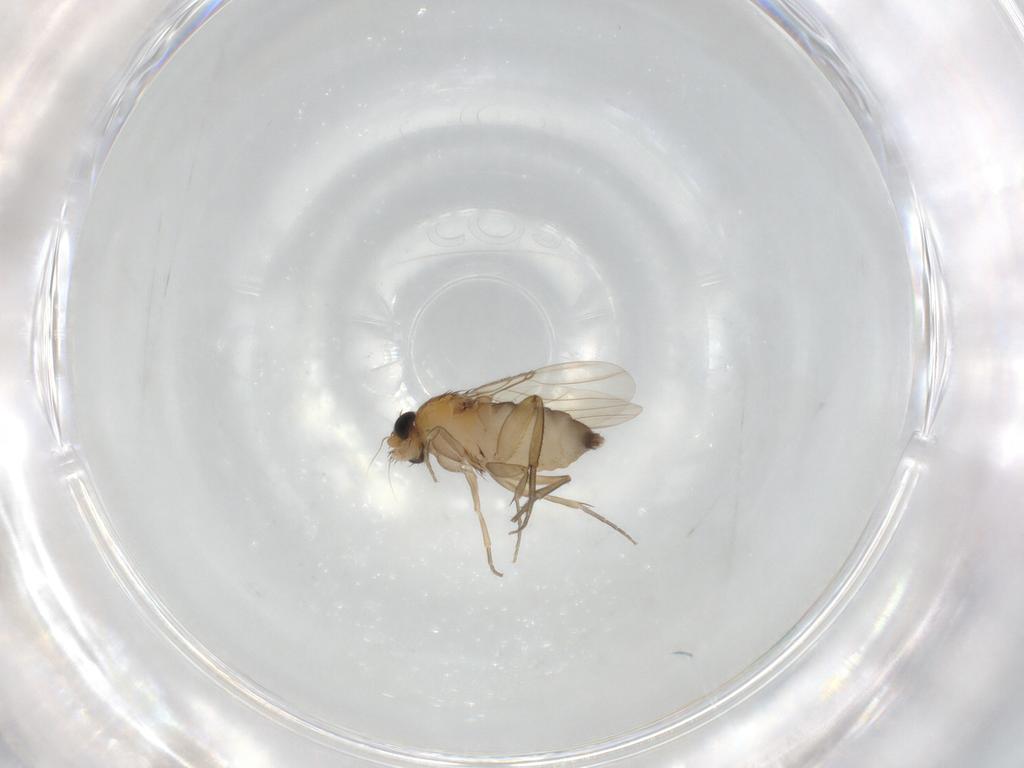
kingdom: Animalia
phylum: Arthropoda
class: Insecta
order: Diptera
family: Phoridae
